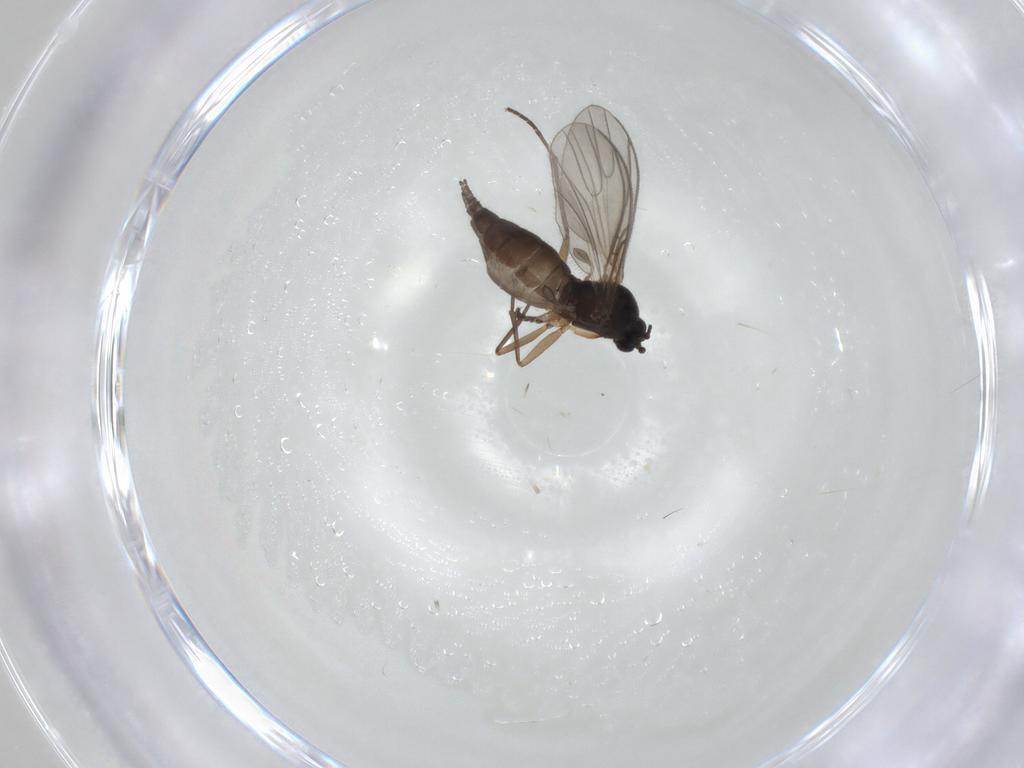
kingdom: Animalia
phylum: Arthropoda
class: Insecta
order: Diptera
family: Sciaridae
